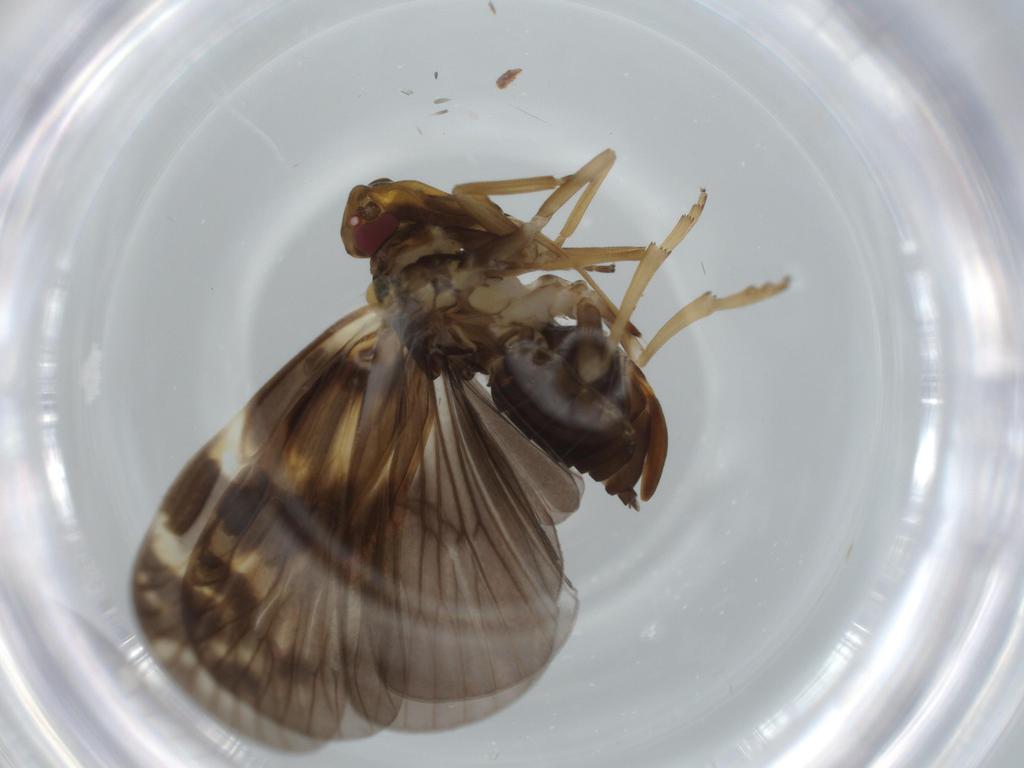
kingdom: Animalia
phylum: Arthropoda
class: Insecta
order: Hemiptera
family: Cixiidae
